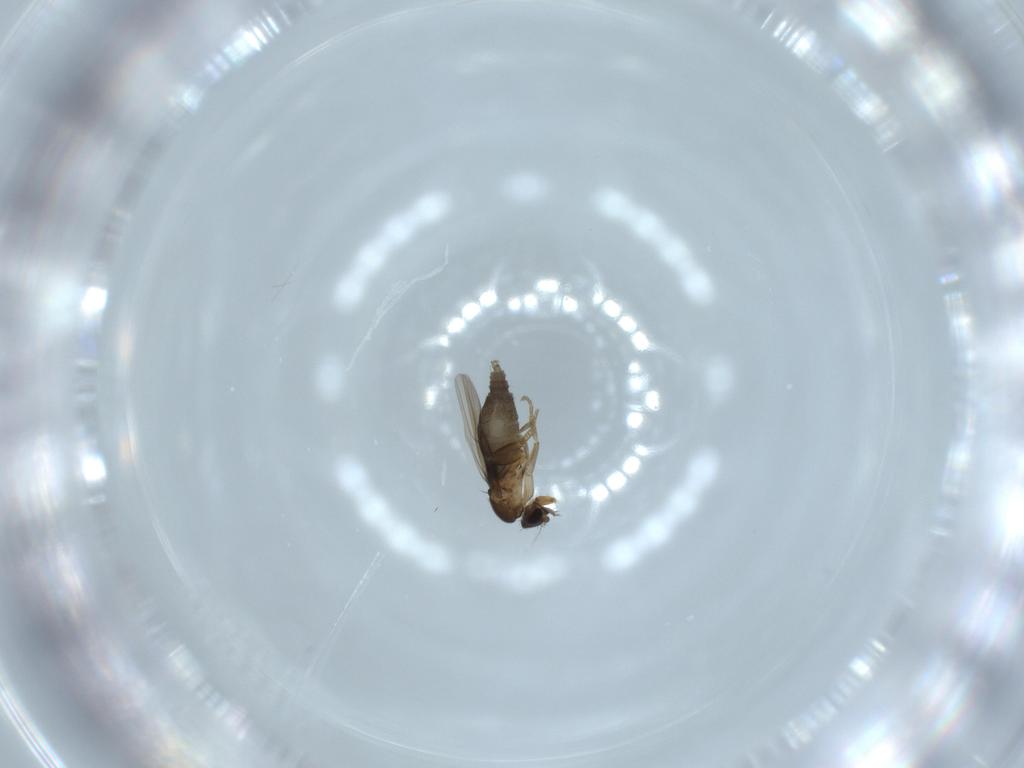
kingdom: Animalia
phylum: Arthropoda
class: Insecta
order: Diptera
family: Phoridae
